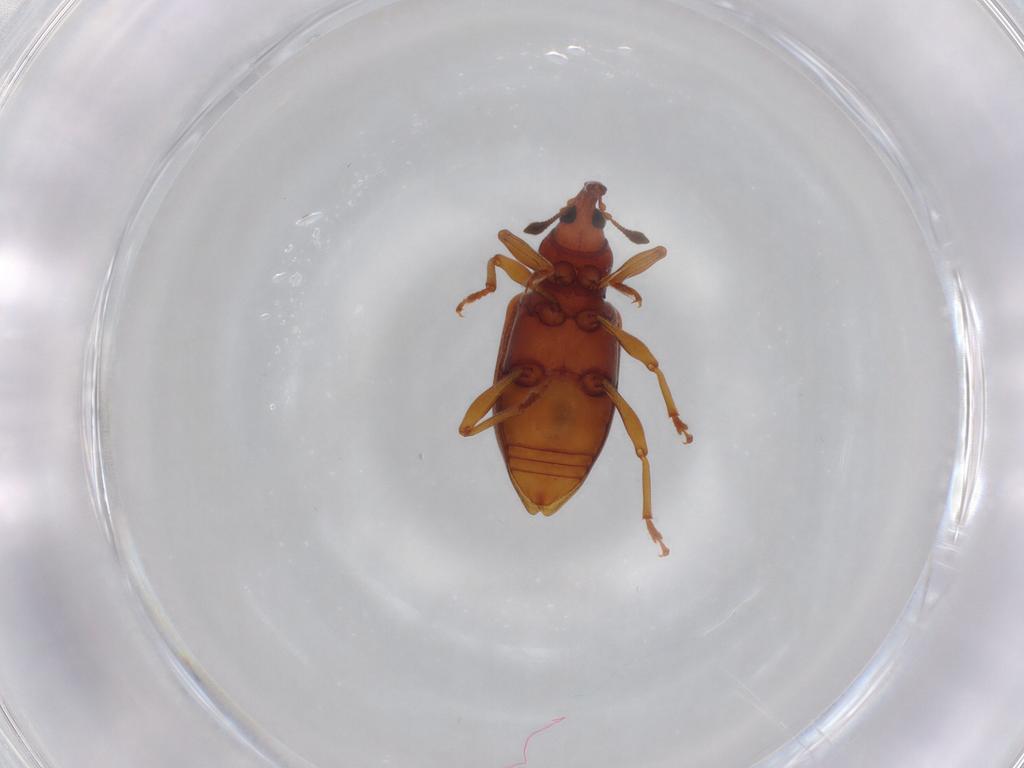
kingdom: Animalia
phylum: Arthropoda
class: Insecta
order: Coleoptera
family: Curculionidae
